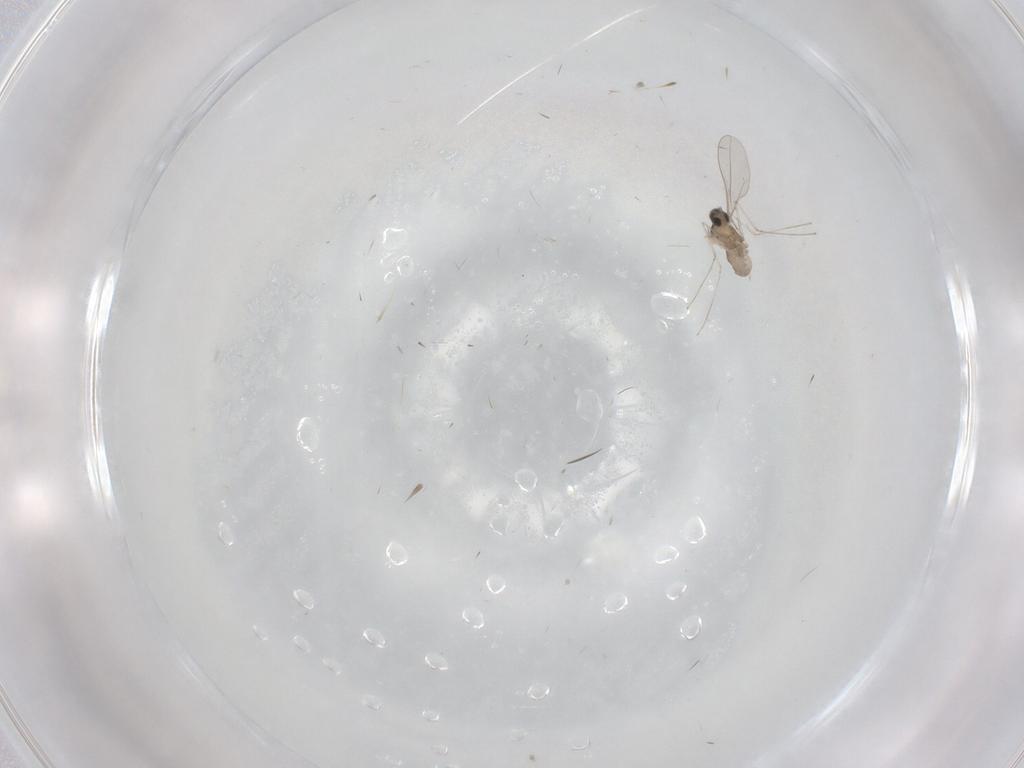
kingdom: Animalia
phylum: Arthropoda
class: Insecta
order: Diptera
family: Cecidomyiidae
